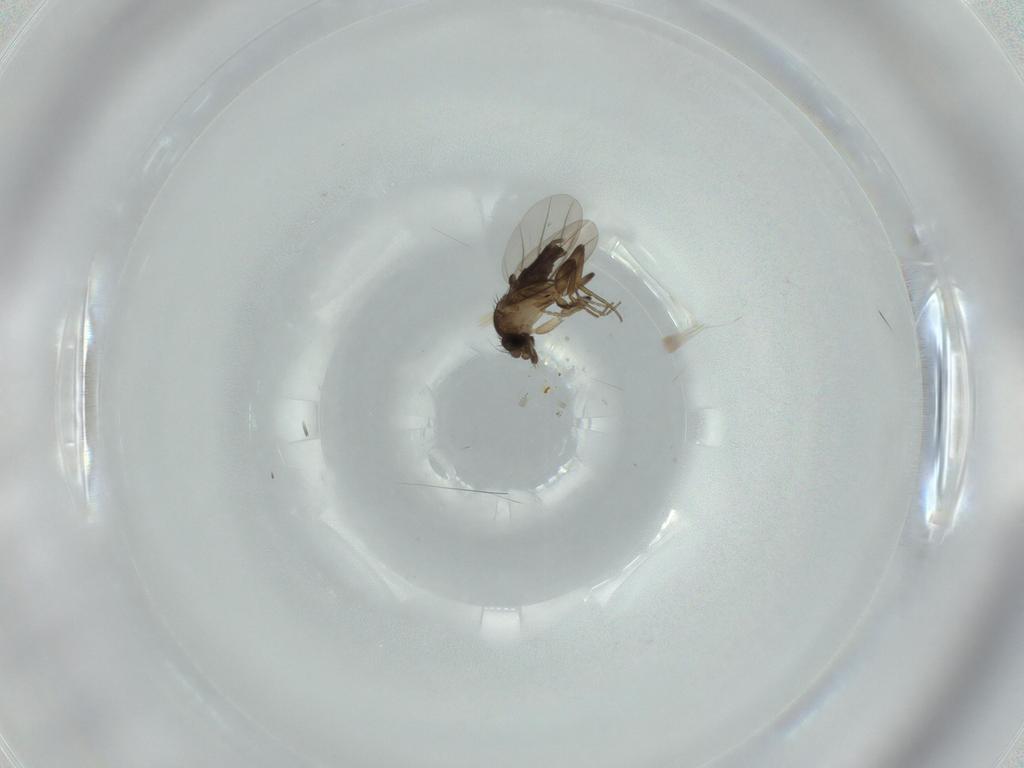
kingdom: Animalia
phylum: Arthropoda
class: Insecta
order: Diptera
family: Phoridae
